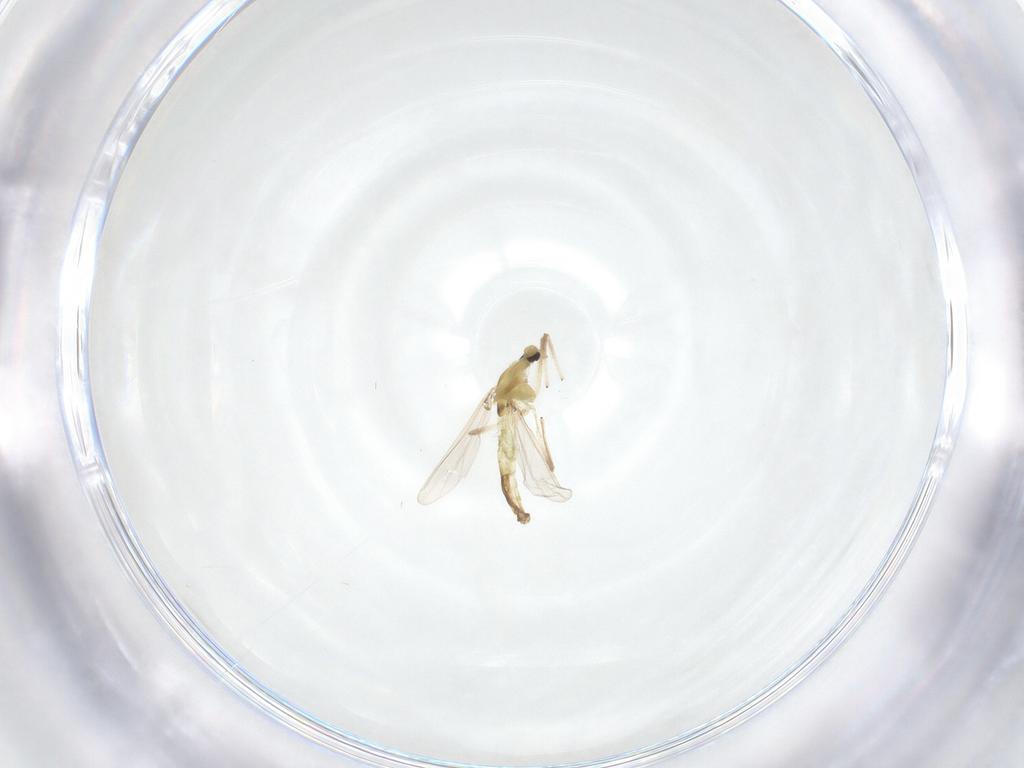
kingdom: Animalia
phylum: Arthropoda
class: Insecta
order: Diptera
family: Chironomidae
